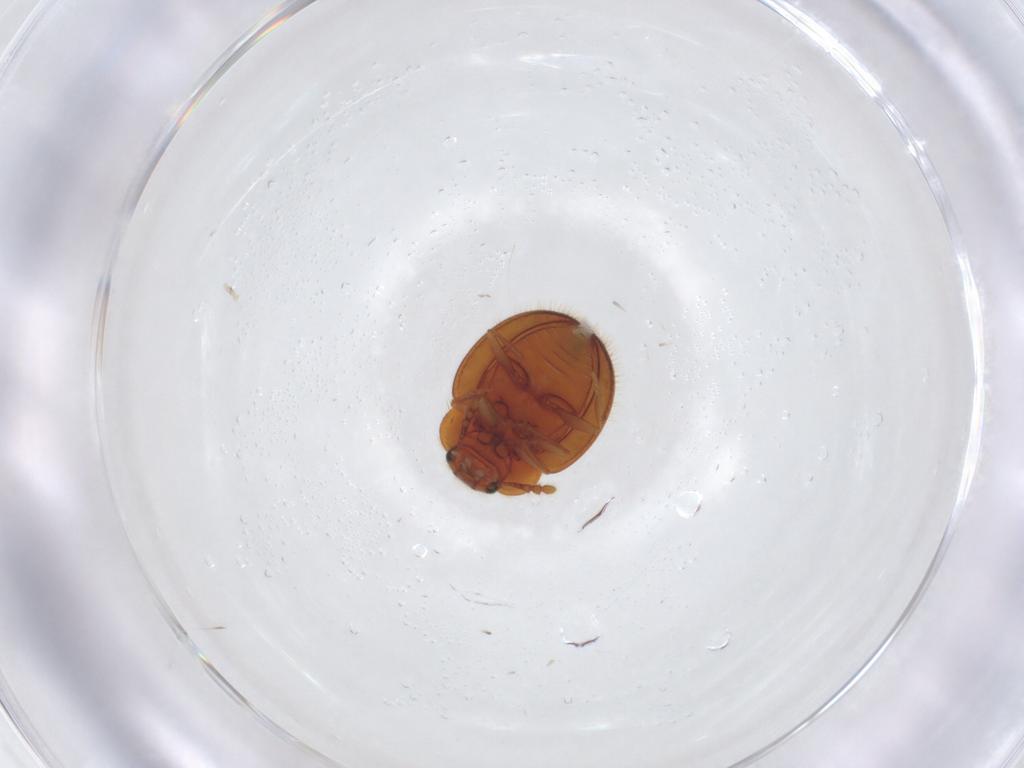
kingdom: Animalia
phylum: Arthropoda
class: Insecta
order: Coleoptera
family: Anamorphidae
